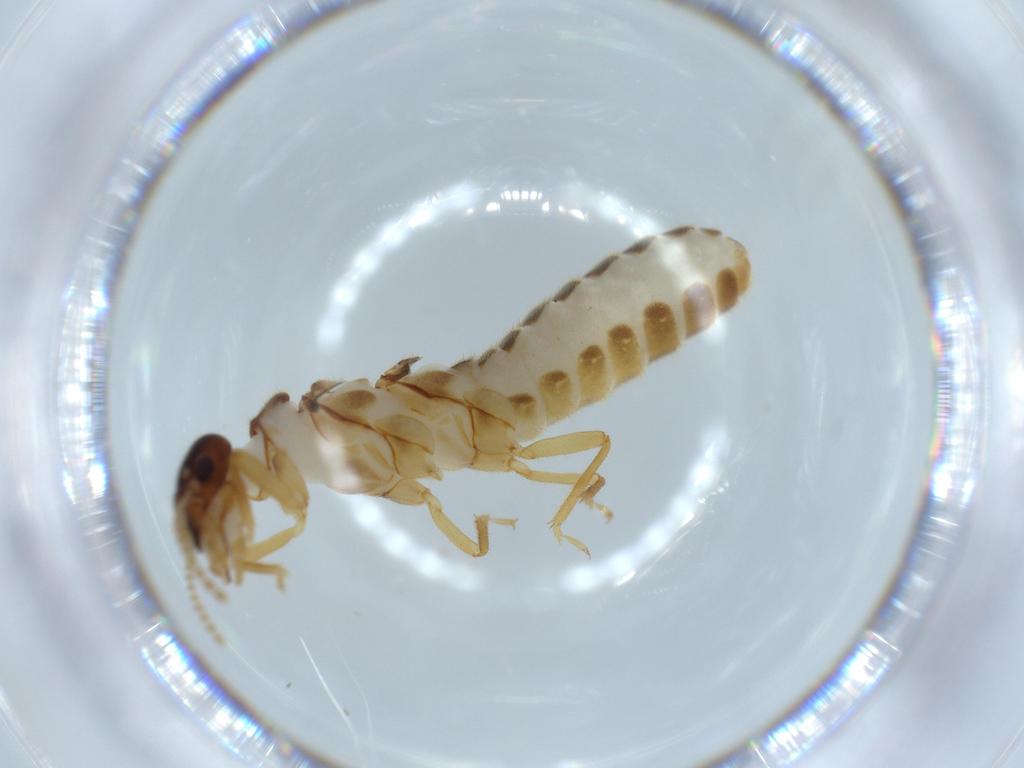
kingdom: Animalia
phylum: Arthropoda
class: Insecta
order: Blattodea
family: Termitidae
